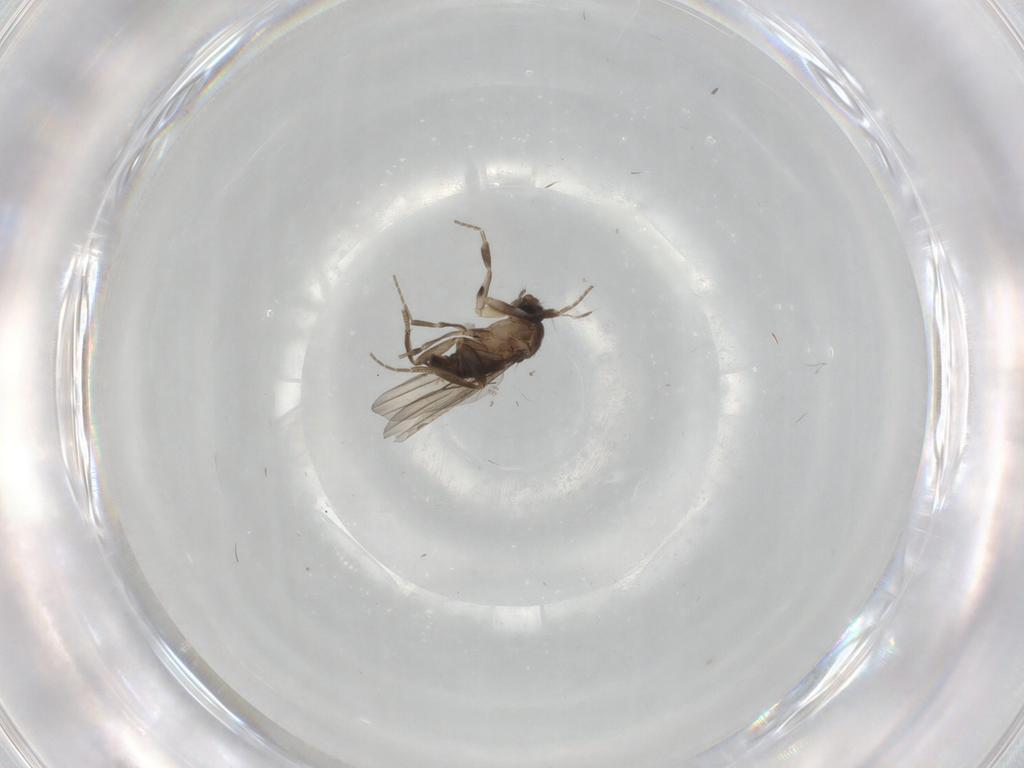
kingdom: Animalia
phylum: Arthropoda
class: Insecta
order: Diptera
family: Phoridae
